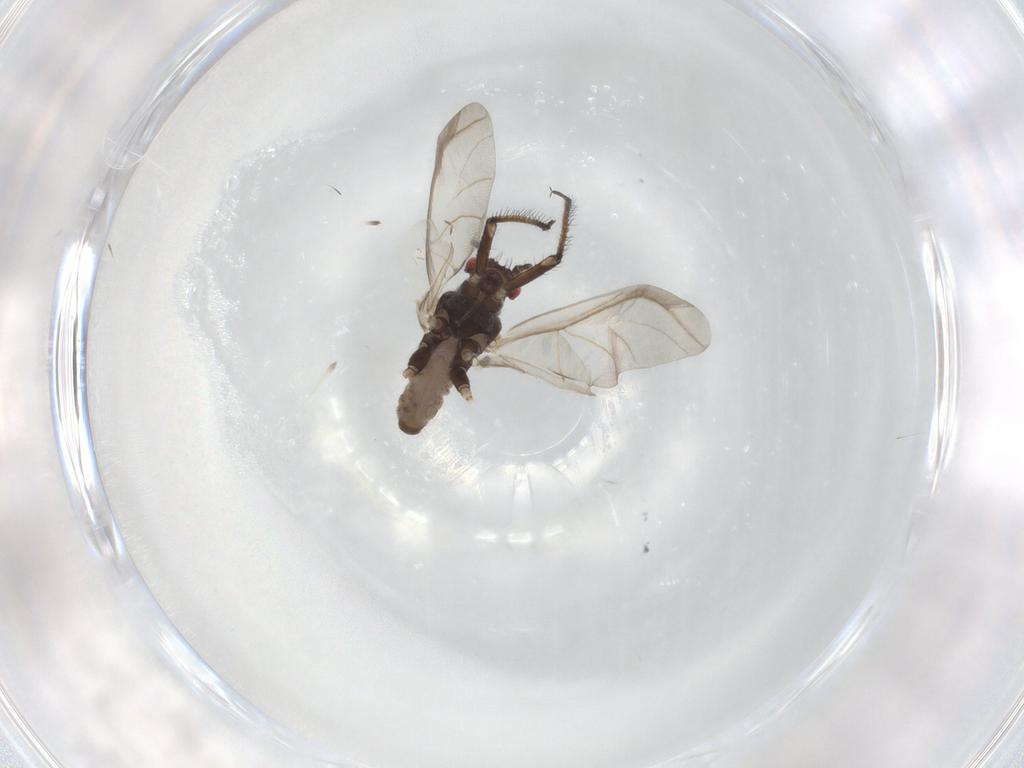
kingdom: Animalia
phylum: Arthropoda
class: Insecta
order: Hemiptera
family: Aphididae
